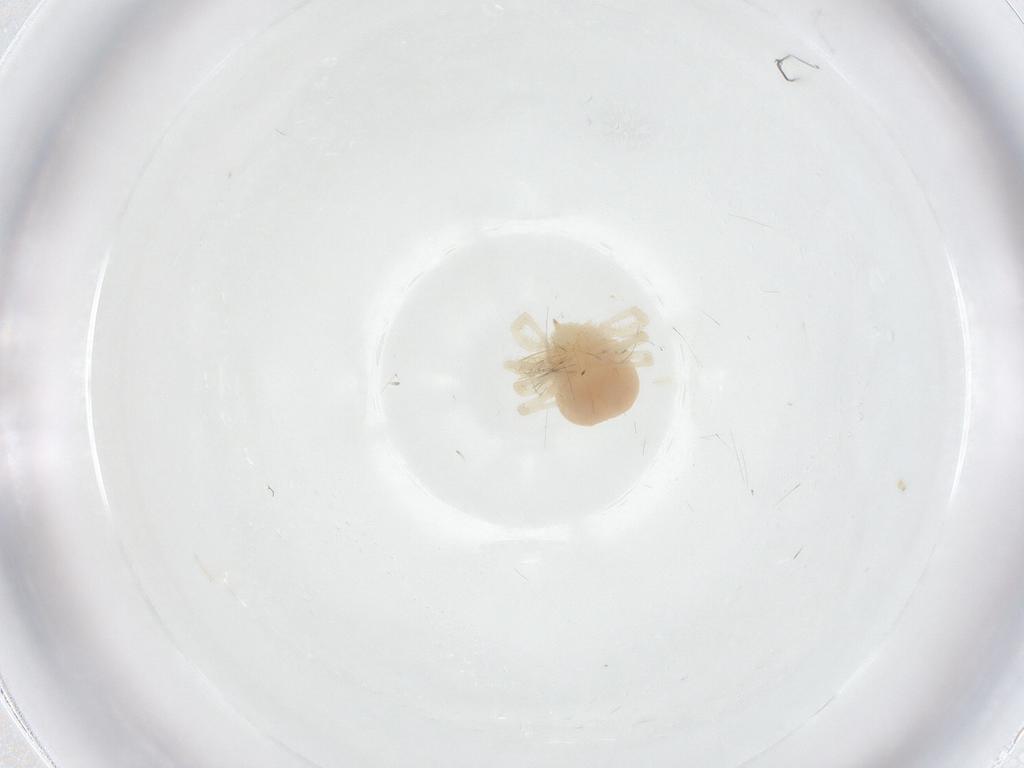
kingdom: Animalia
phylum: Arthropoda
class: Arachnida
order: Trombidiformes
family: Anystidae
